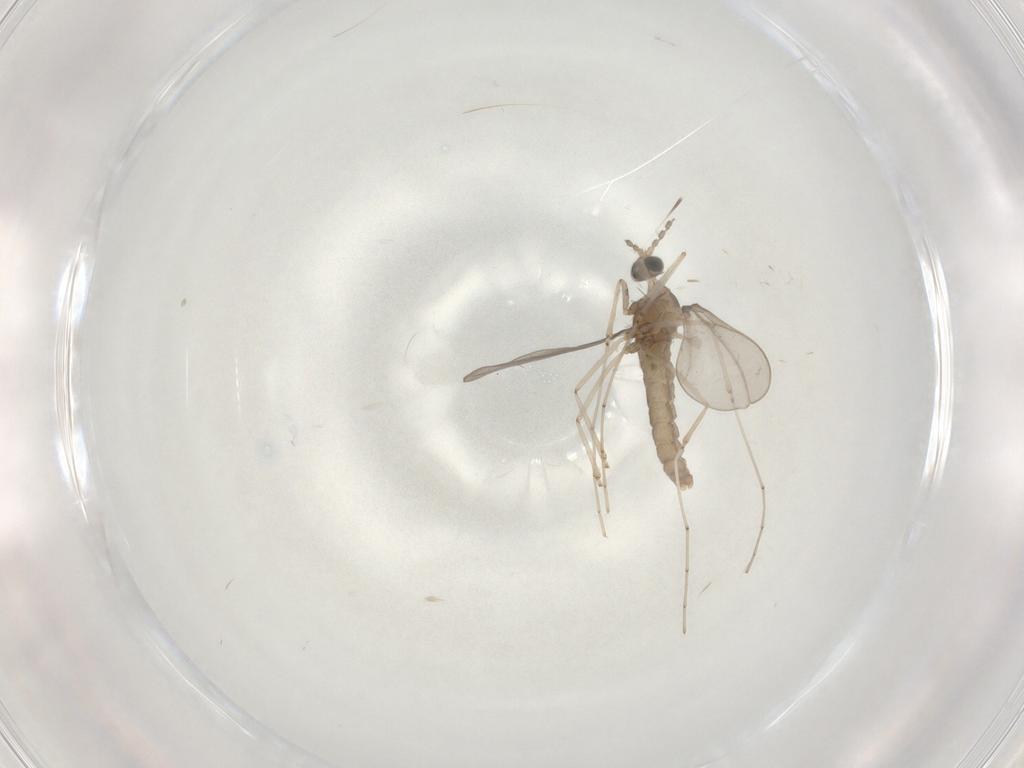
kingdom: Animalia
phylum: Arthropoda
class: Insecta
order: Diptera
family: Cecidomyiidae
